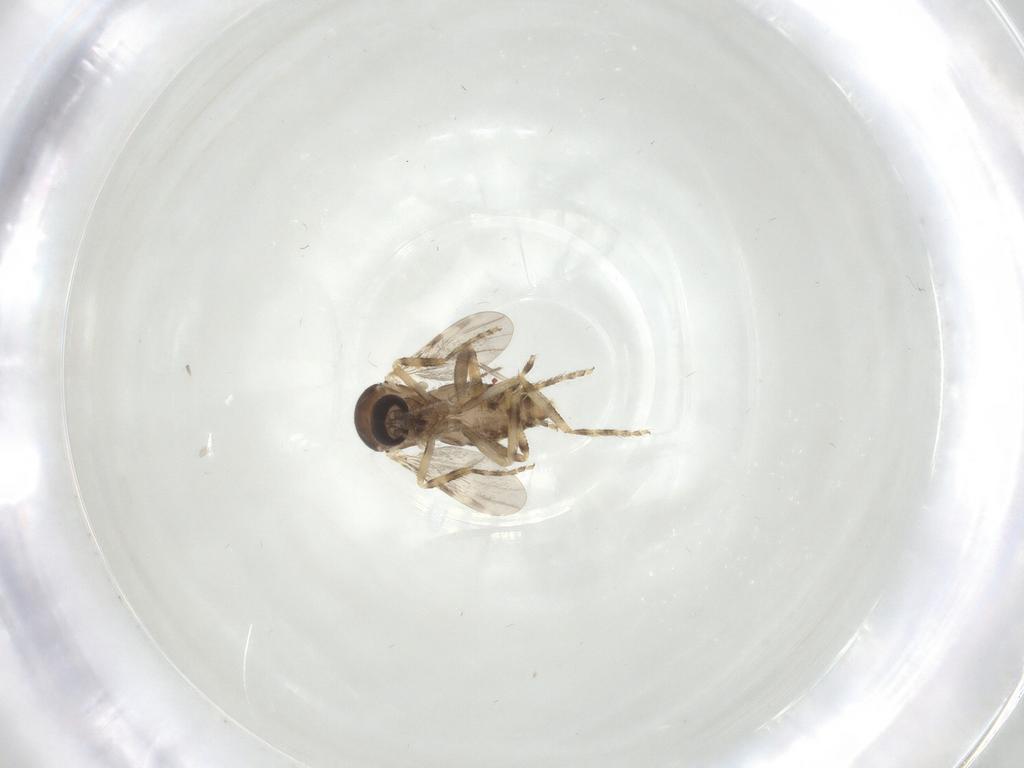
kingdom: Animalia
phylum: Arthropoda
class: Insecta
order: Diptera
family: Ceratopogonidae
